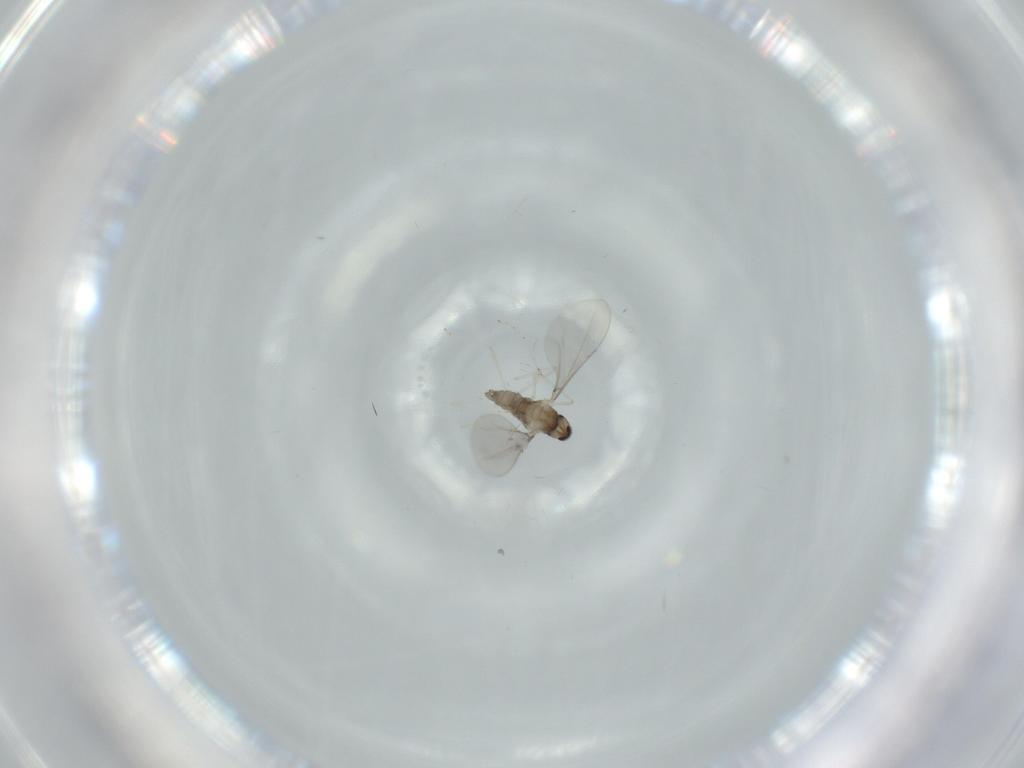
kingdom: Animalia
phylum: Arthropoda
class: Insecta
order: Diptera
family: Cecidomyiidae
